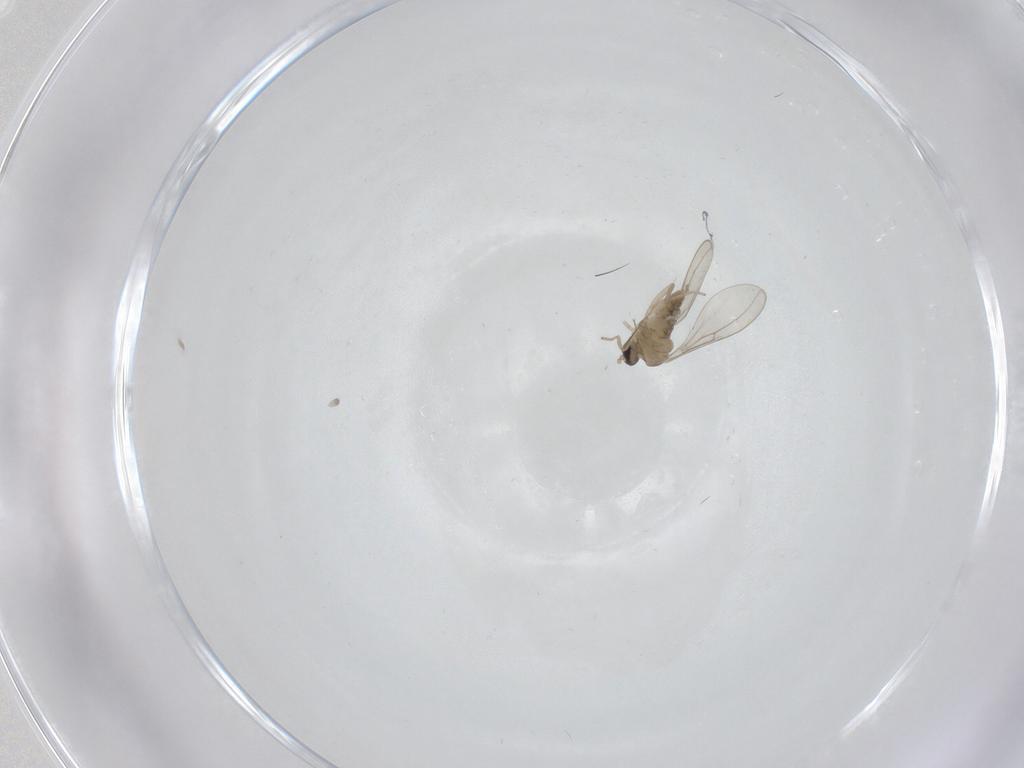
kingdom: Animalia
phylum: Arthropoda
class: Insecta
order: Diptera
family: Cecidomyiidae
